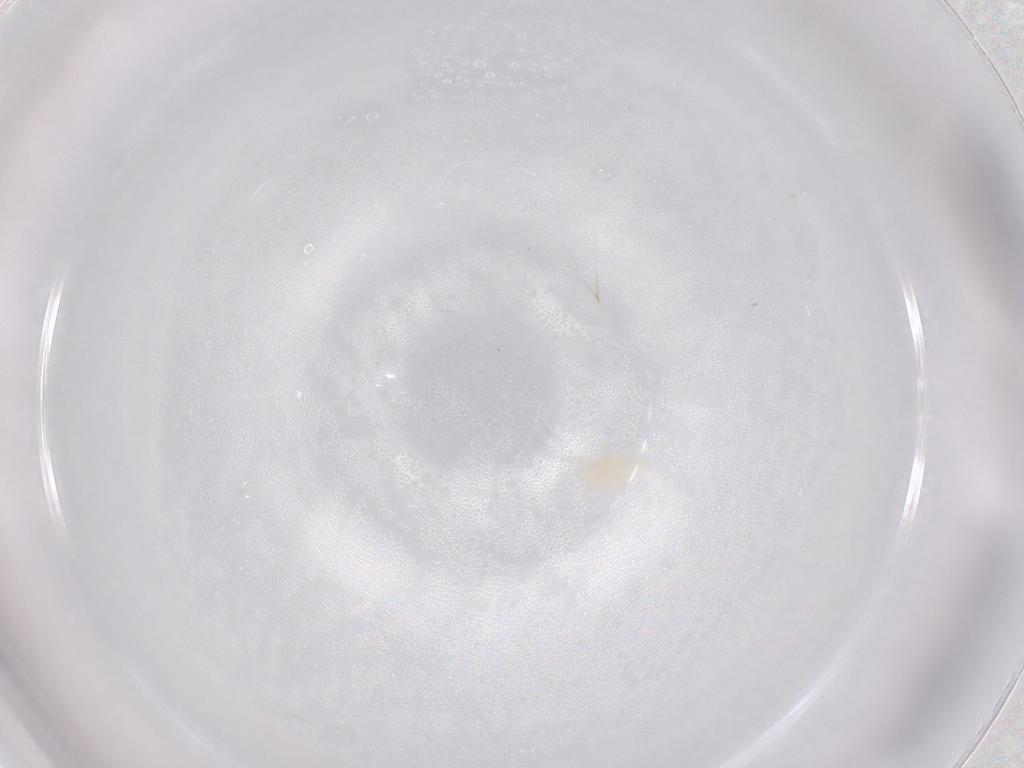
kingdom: Animalia
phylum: Arthropoda
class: Arachnida
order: Mesostigmata
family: Laelapidae
